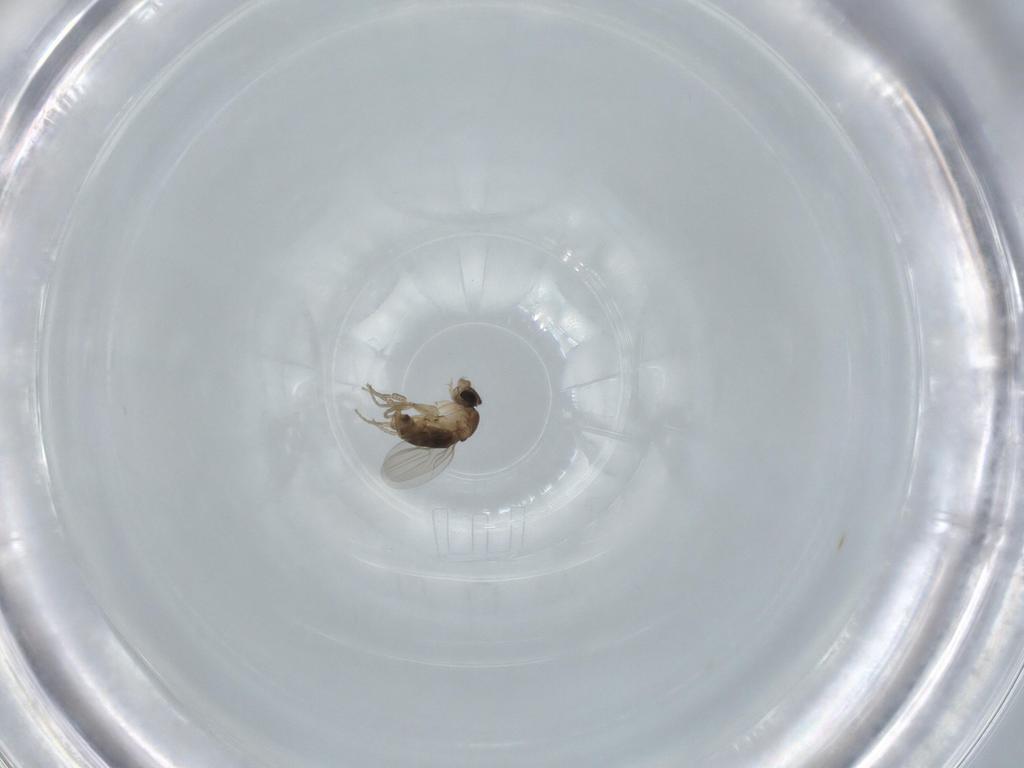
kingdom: Animalia
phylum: Arthropoda
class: Insecta
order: Diptera
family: Phoridae
